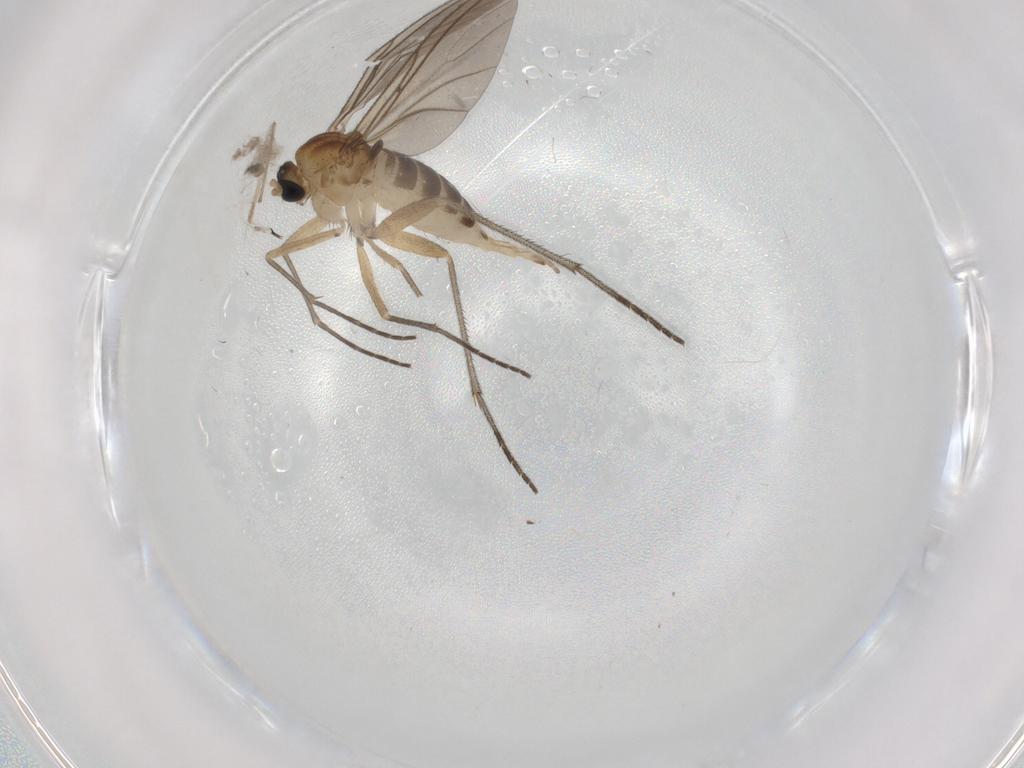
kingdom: Animalia
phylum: Arthropoda
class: Insecta
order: Diptera
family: Sciaridae
